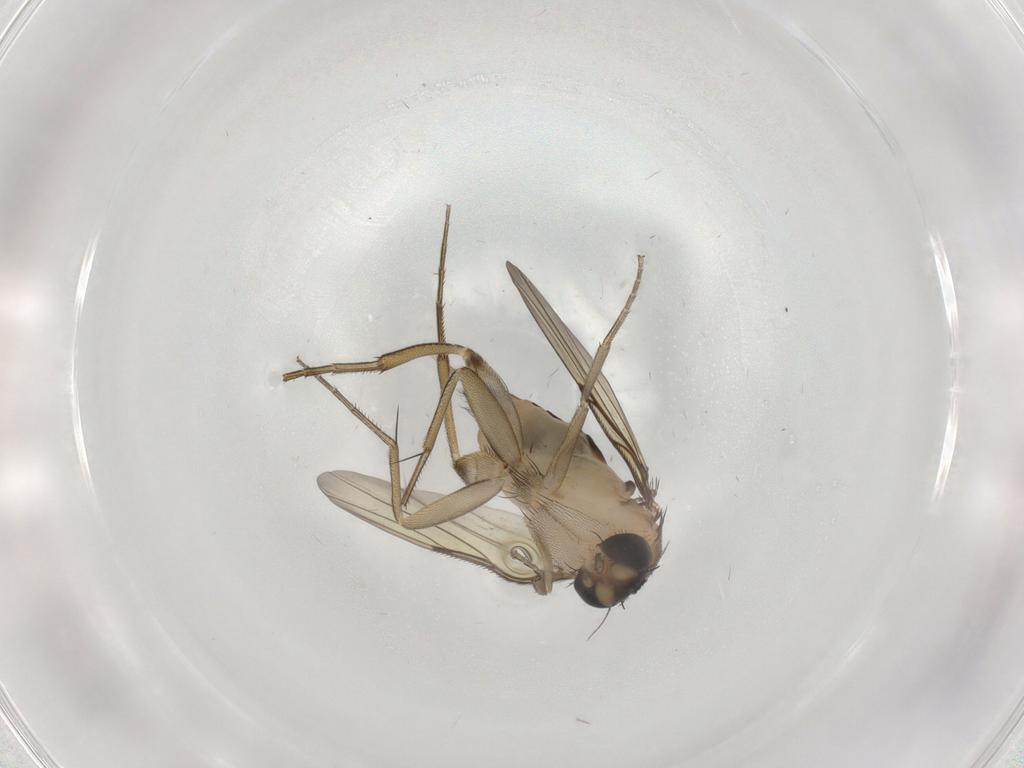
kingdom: Animalia
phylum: Arthropoda
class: Insecta
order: Diptera
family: Phoridae
